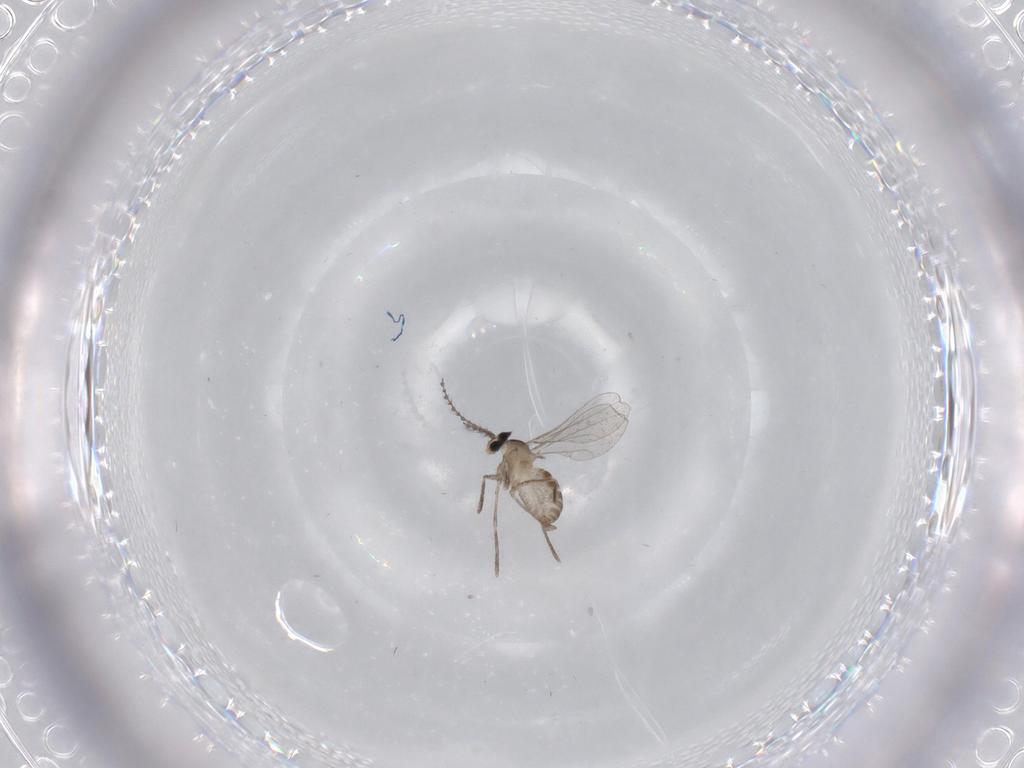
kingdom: Animalia
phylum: Arthropoda
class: Insecta
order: Diptera
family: Cecidomyiidae
